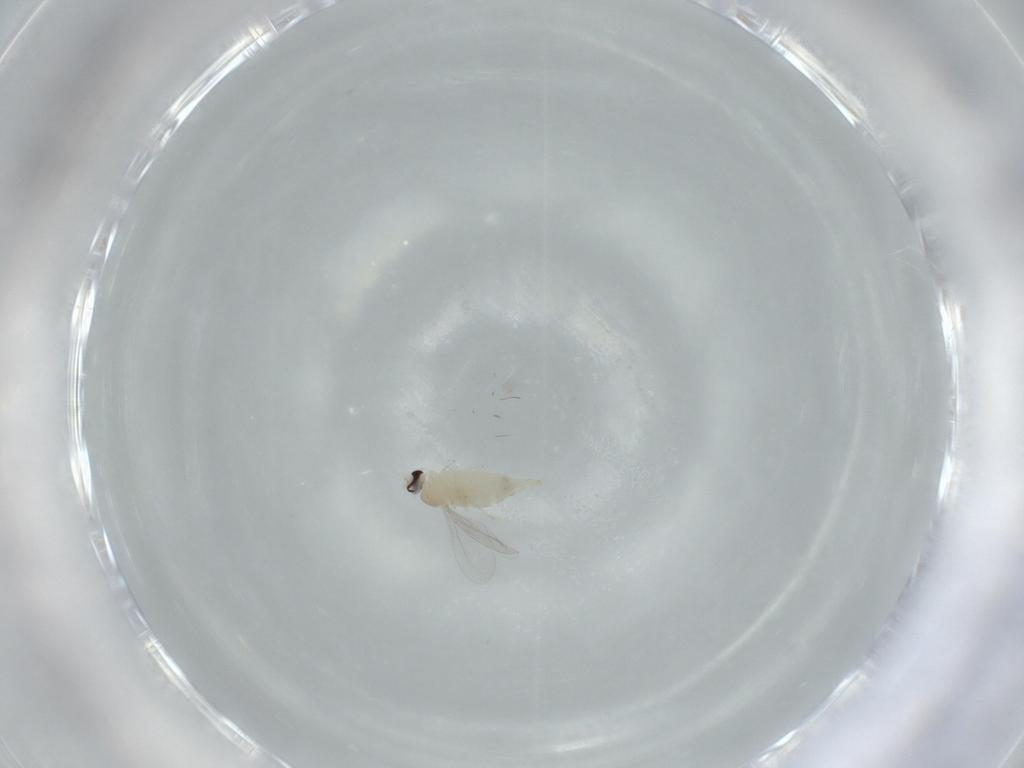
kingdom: Animalia
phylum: Arthropoda
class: Insecta
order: Diptera
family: Cecidomyiidae
